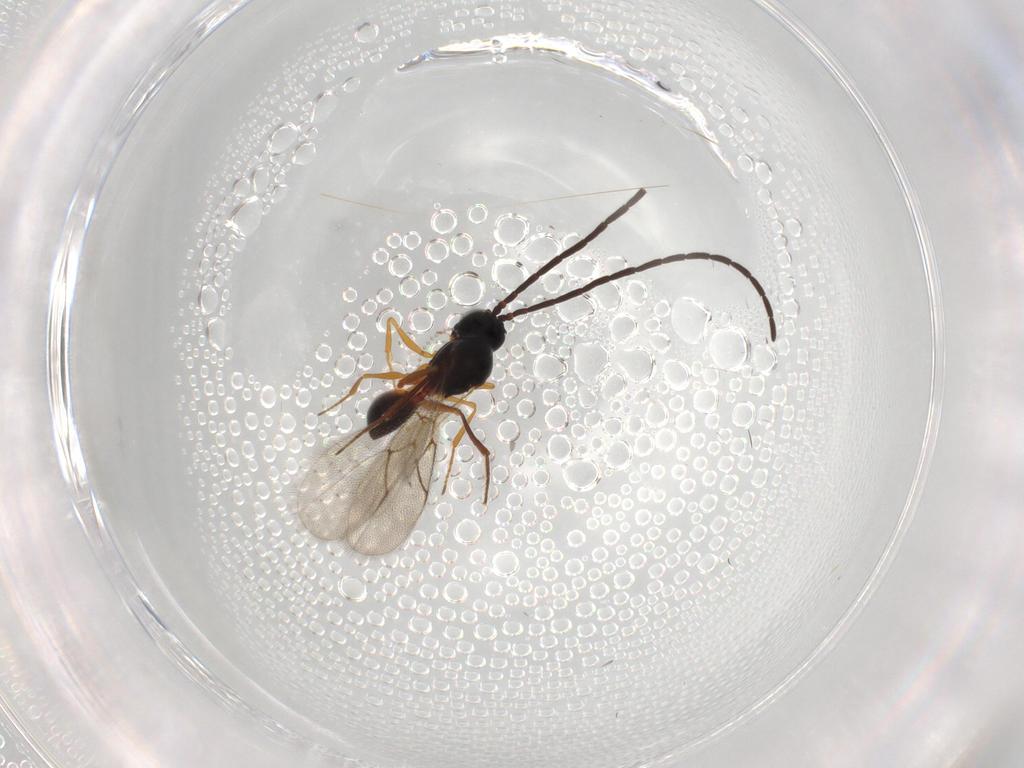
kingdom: Animalia
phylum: Arthropoda
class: Insecta
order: Hymenoptera
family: Figitidae
